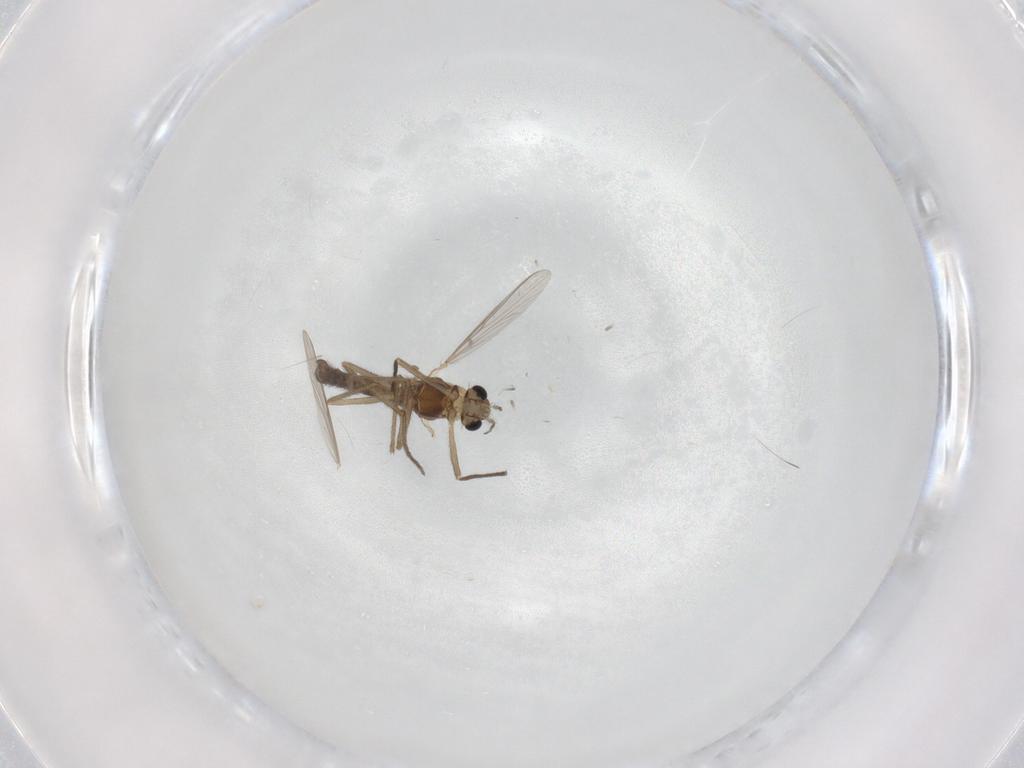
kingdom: Animalia
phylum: Arthropoda
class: Insecta
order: Diptera
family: Chironomidae
